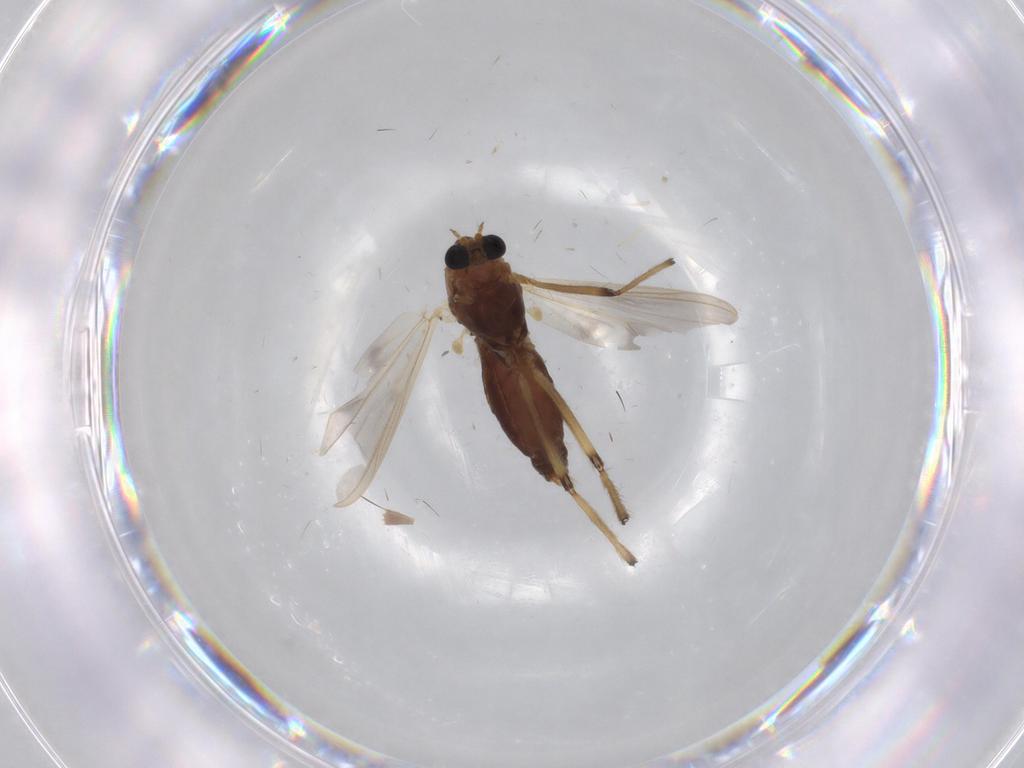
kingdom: Animalia
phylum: Arthropoda
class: Insecta
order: Diptera
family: Chironomidae
